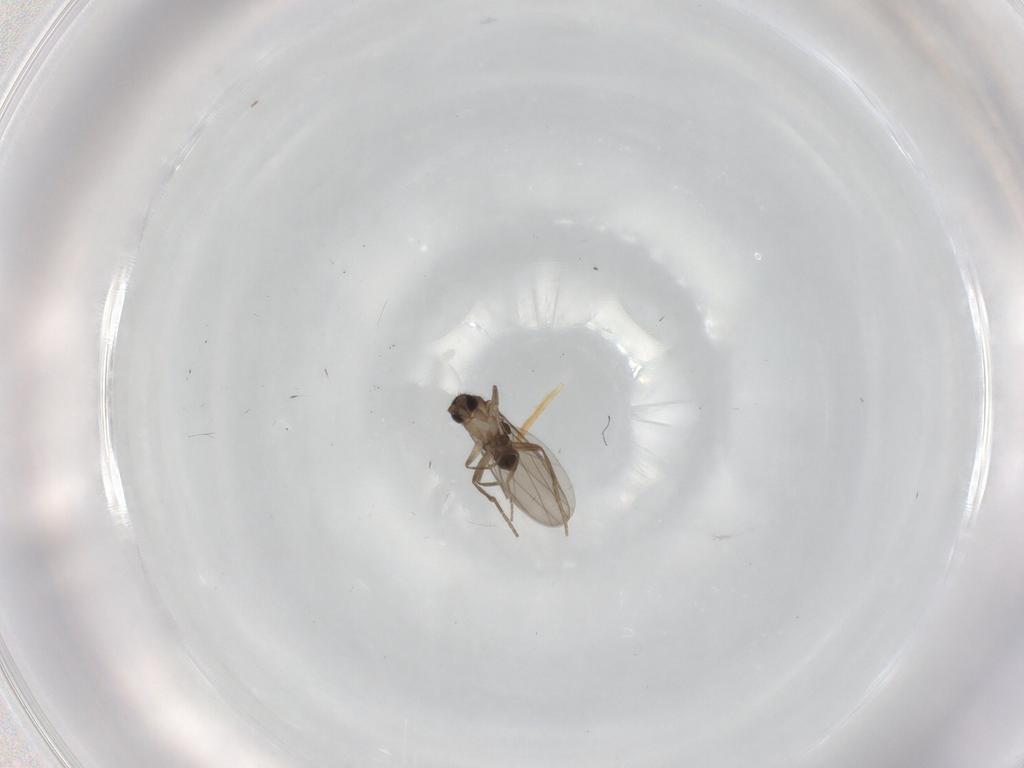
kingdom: Animalia
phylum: Arthropoda
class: Insecta
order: Diptera
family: Phoridae
